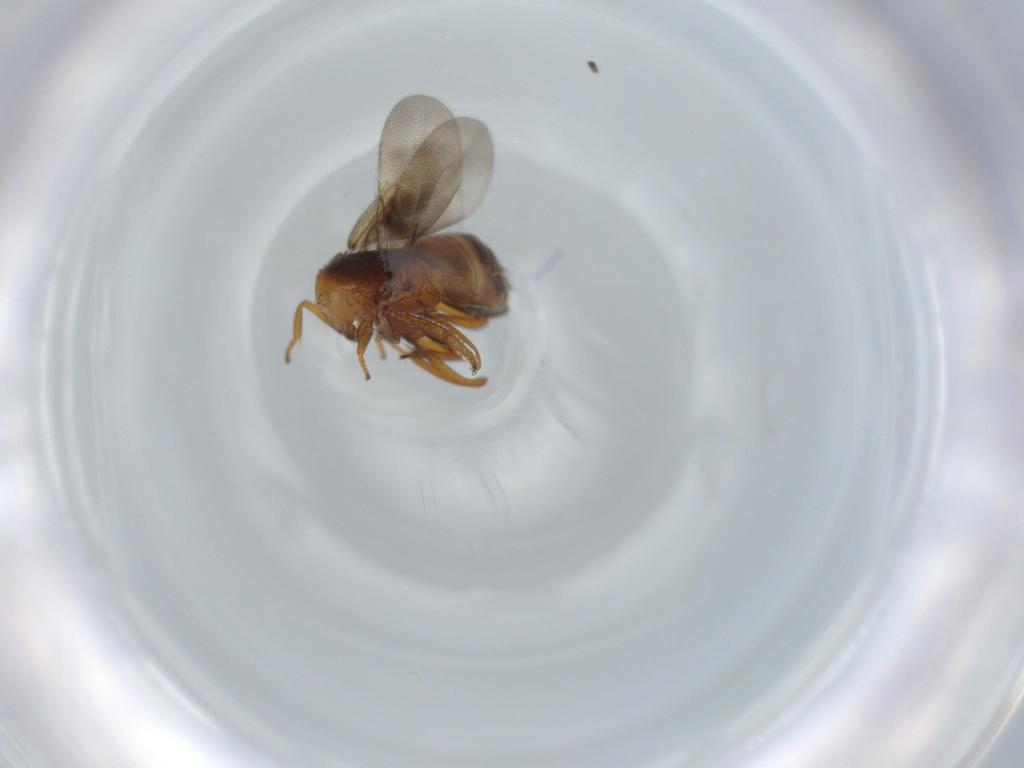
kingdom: Animalia
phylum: Arthropoda
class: Insecta
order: Hymenoptera
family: Encyrtidae
